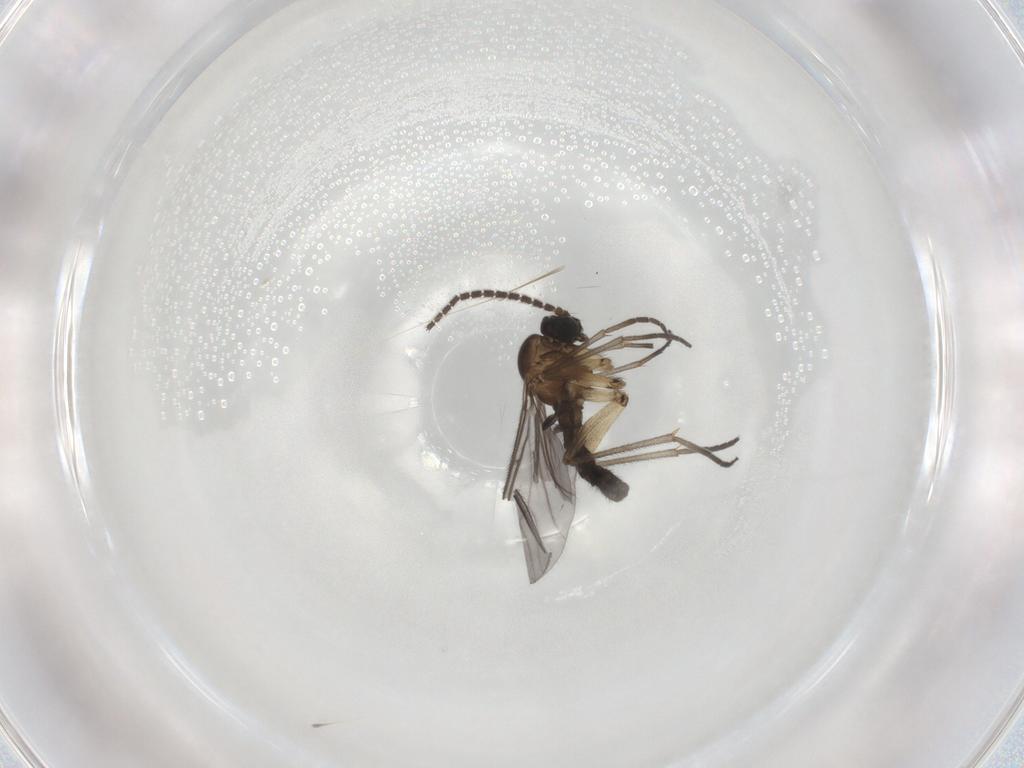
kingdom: Animalia
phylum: Arthropoda
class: Insecta
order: Diptera
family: Sciaridae
